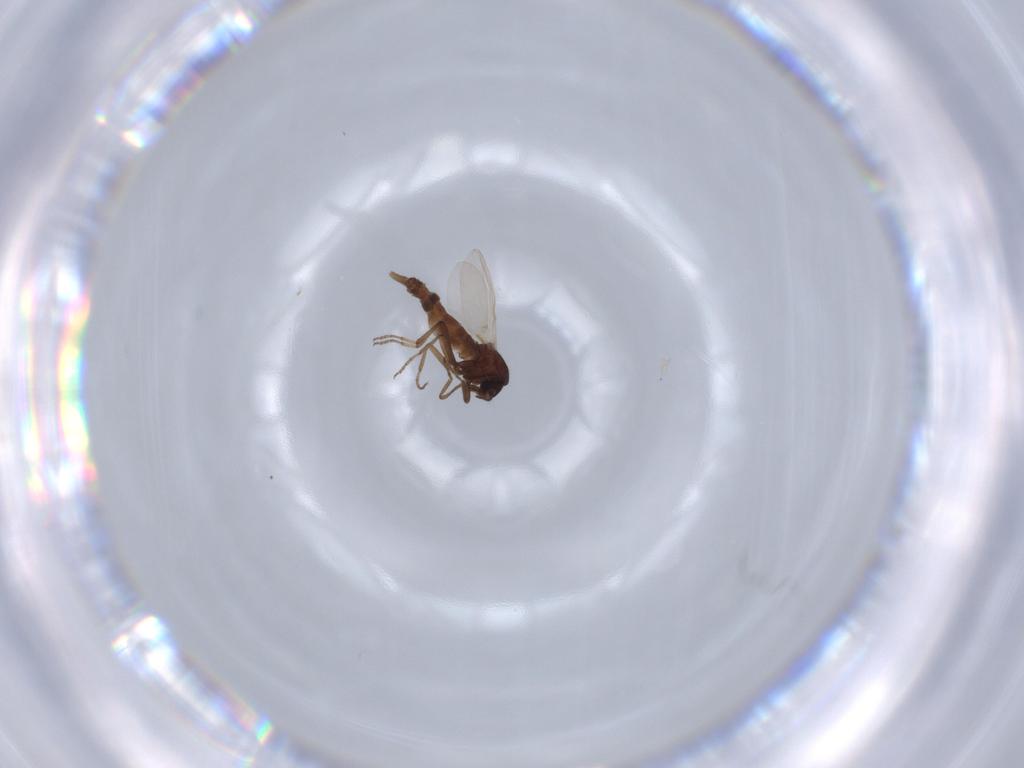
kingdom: Animalia
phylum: Arthropoda
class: Insecta
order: Diptera
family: Ceratopogonidae
